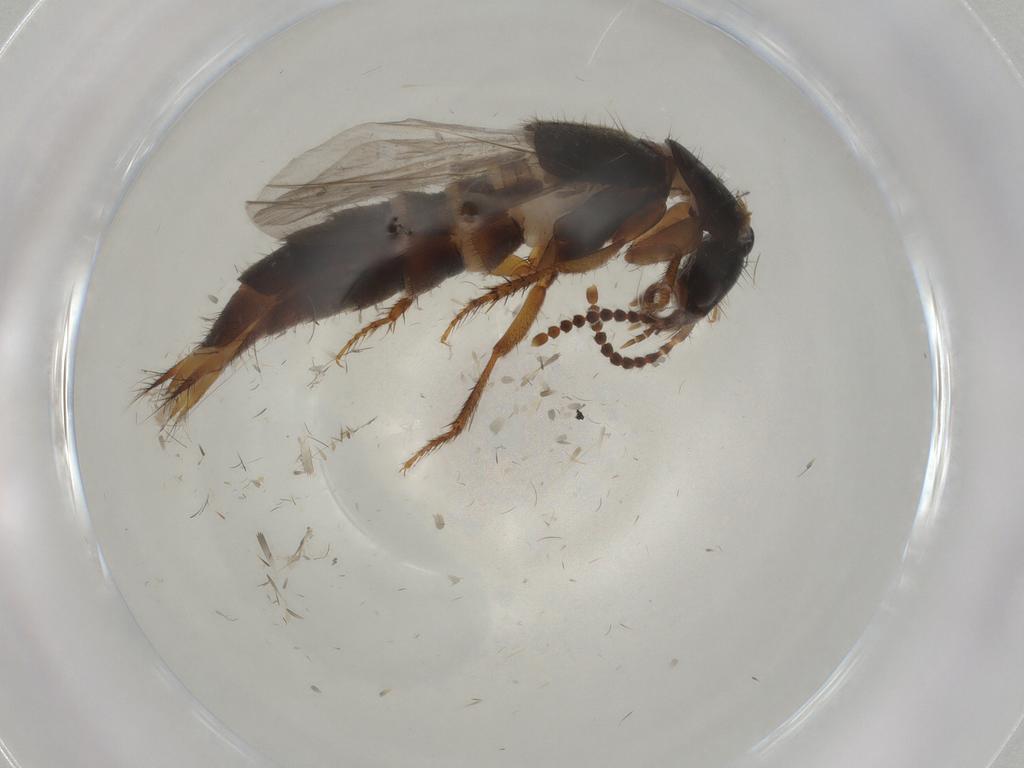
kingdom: Animalia
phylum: Arthropoda
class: Insecta
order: Coleoptera
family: Staphylinidae
